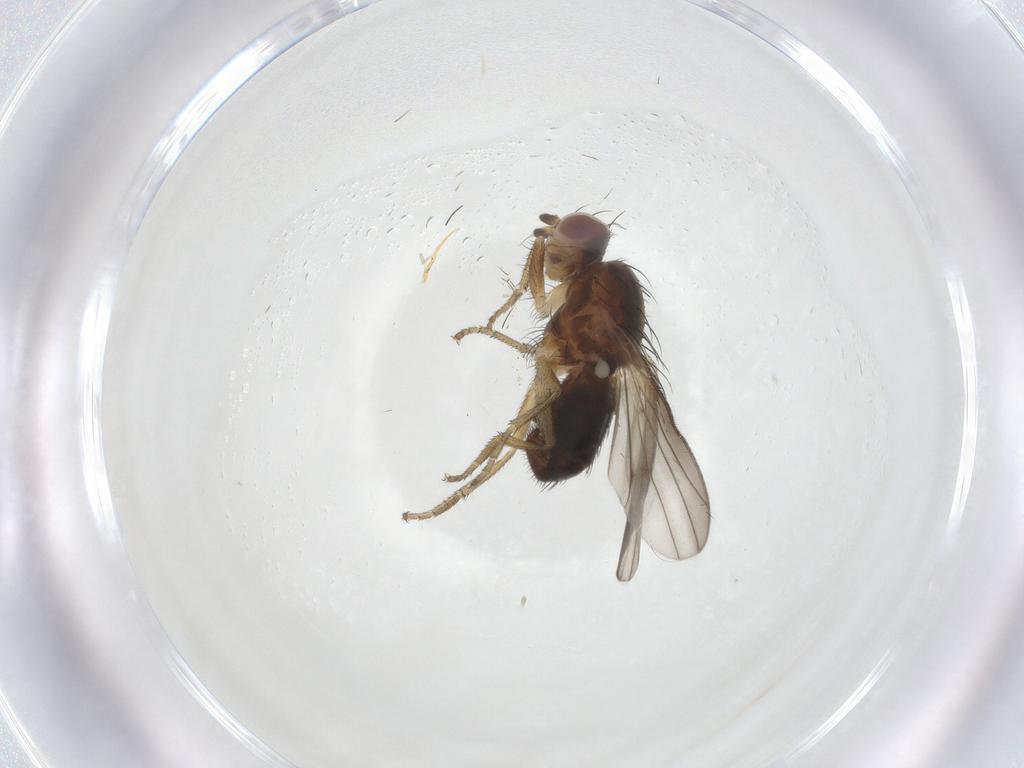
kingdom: Animalia
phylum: Arthropoda
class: Insecta
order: Diptera
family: Heleomyzidae
